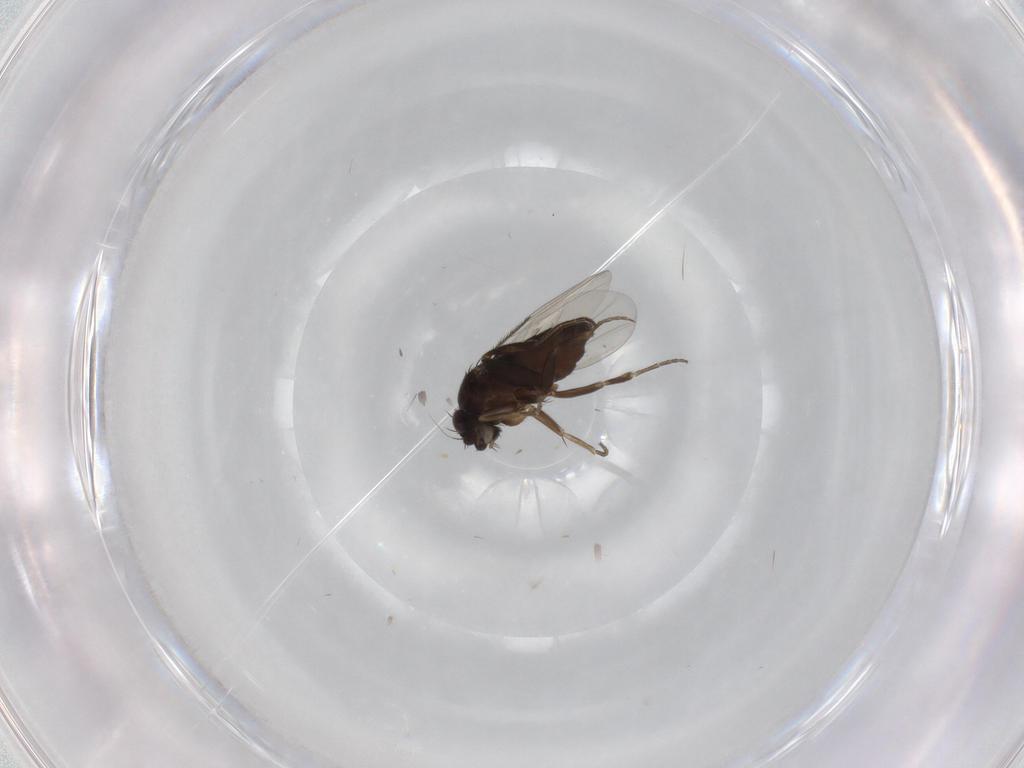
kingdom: Animalia
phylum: Arthropoda
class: Insecta
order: Diptera
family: Phoridae
